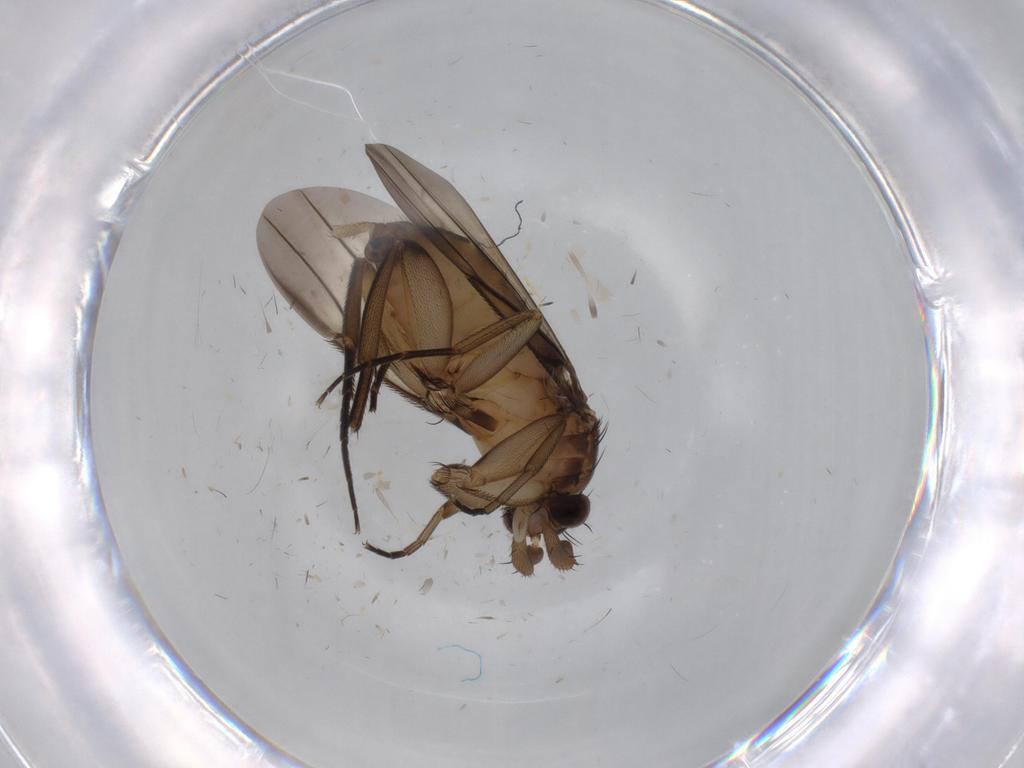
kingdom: Animalia
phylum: Arthropoda
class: Insecta
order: Diptera
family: Phoridae
